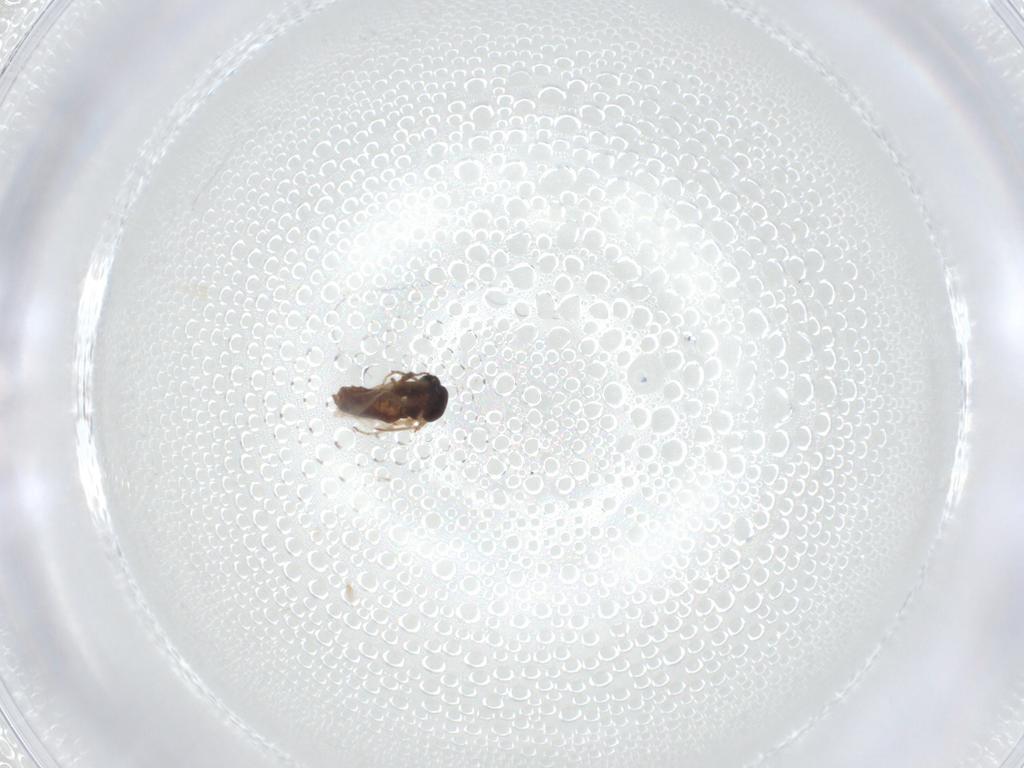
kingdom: Animalia
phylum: Arthropoda
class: Insecta
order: Diptera
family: Ceratopogonidae
